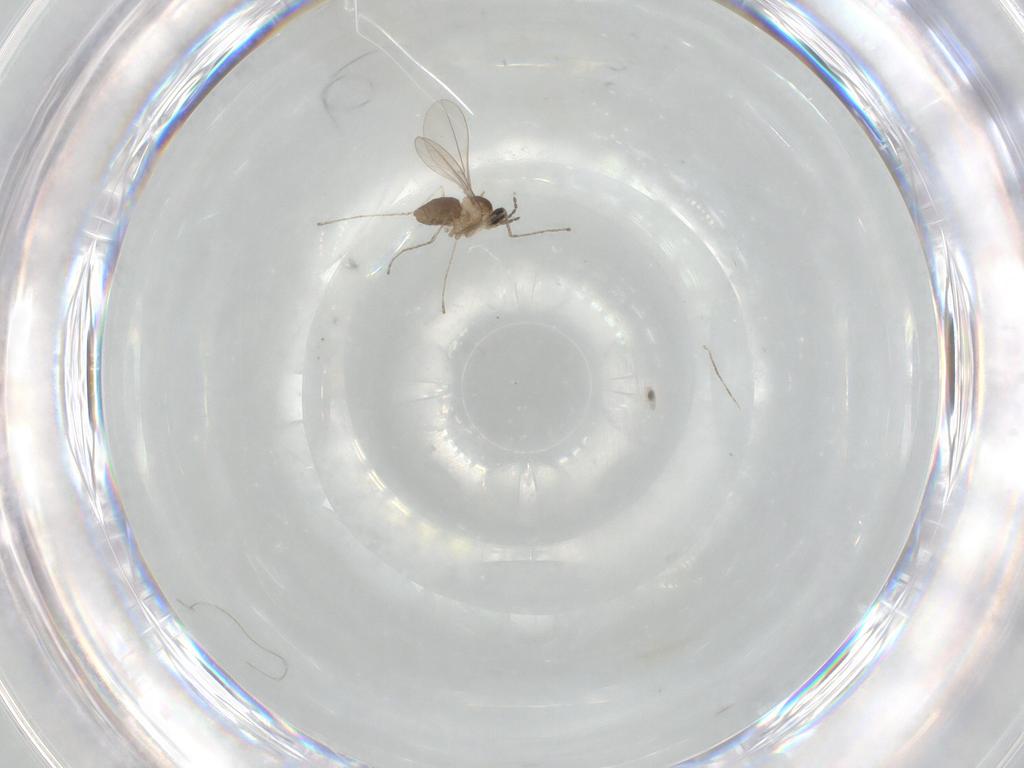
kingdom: Animalia
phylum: Arthropoda
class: Insecta
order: Diptera
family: Cecidomyiidae
